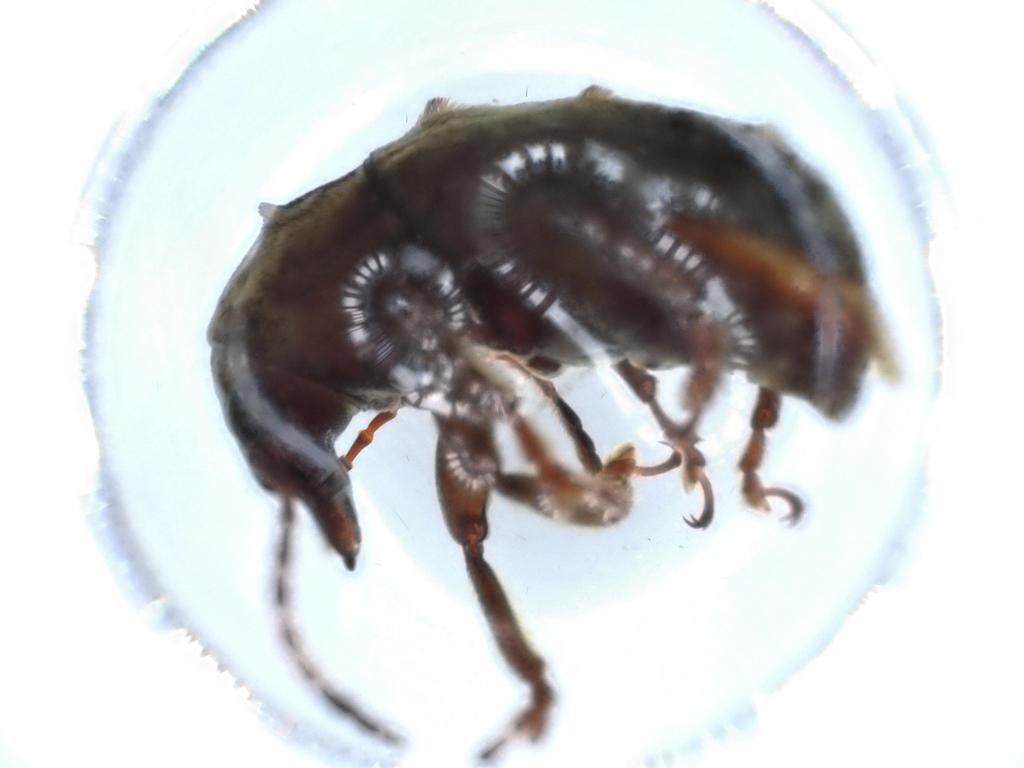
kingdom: Animalia
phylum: Arthropoda
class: Insecta
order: Coleoptera
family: Anthribidae
